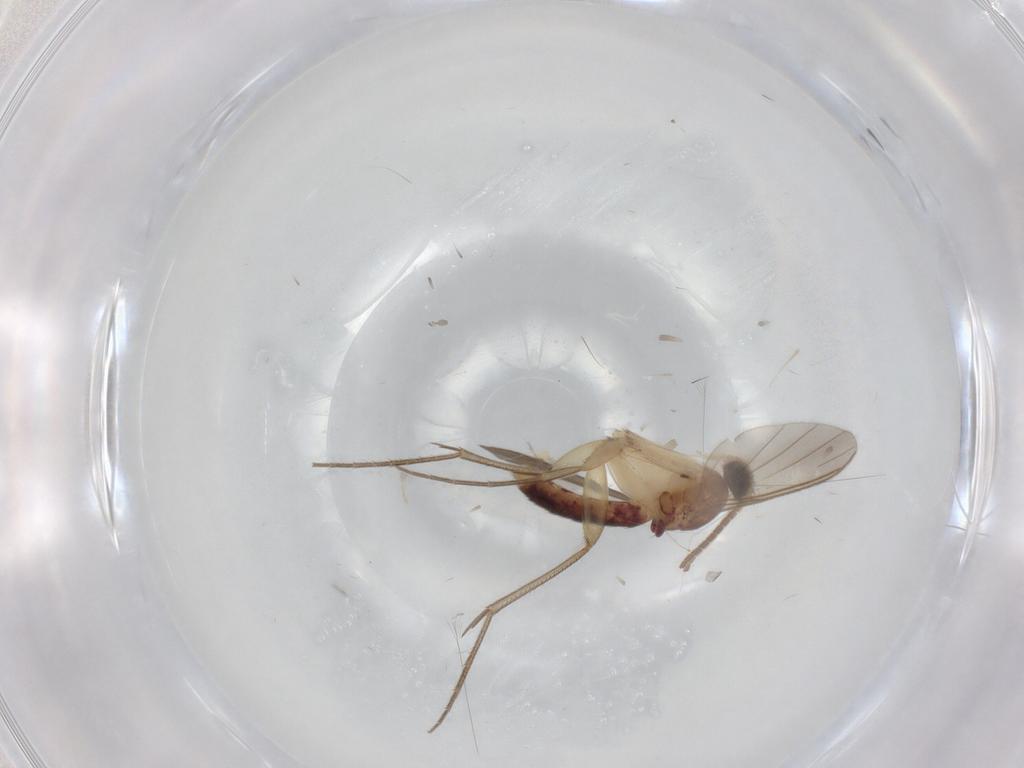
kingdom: Animalia
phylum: Arthropoda
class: Insecta
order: Diptera
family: Mycetophilidae
